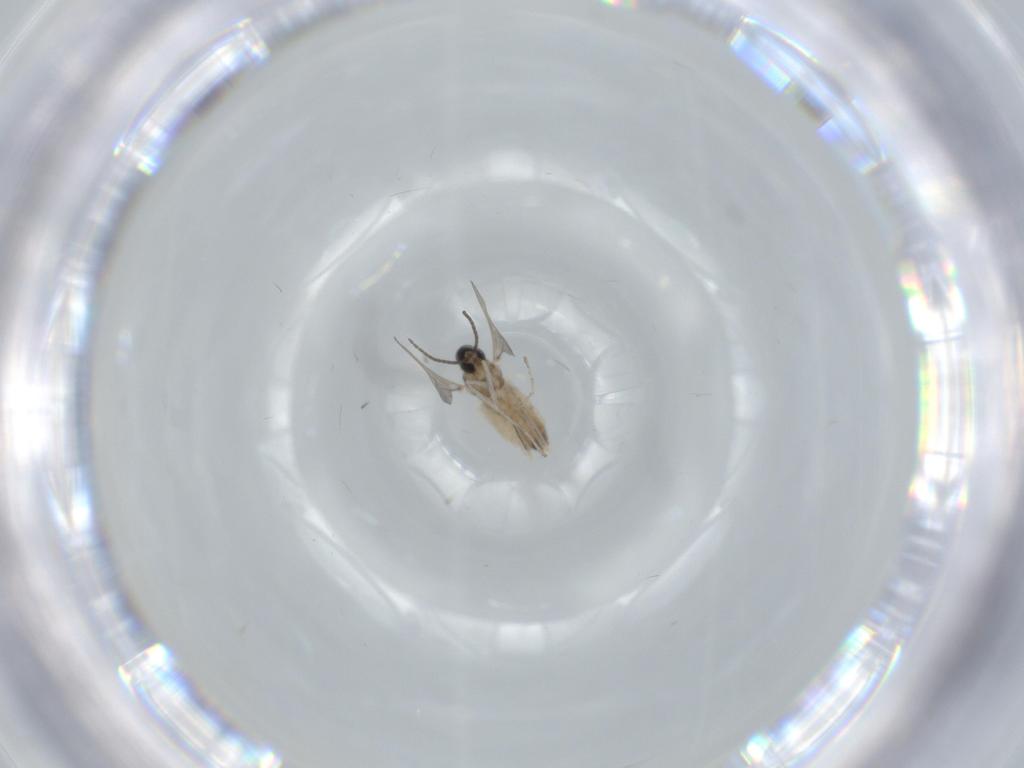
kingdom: Animalia
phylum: Arthropoda
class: Insecta
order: Diptera
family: Cecidomyiidae
